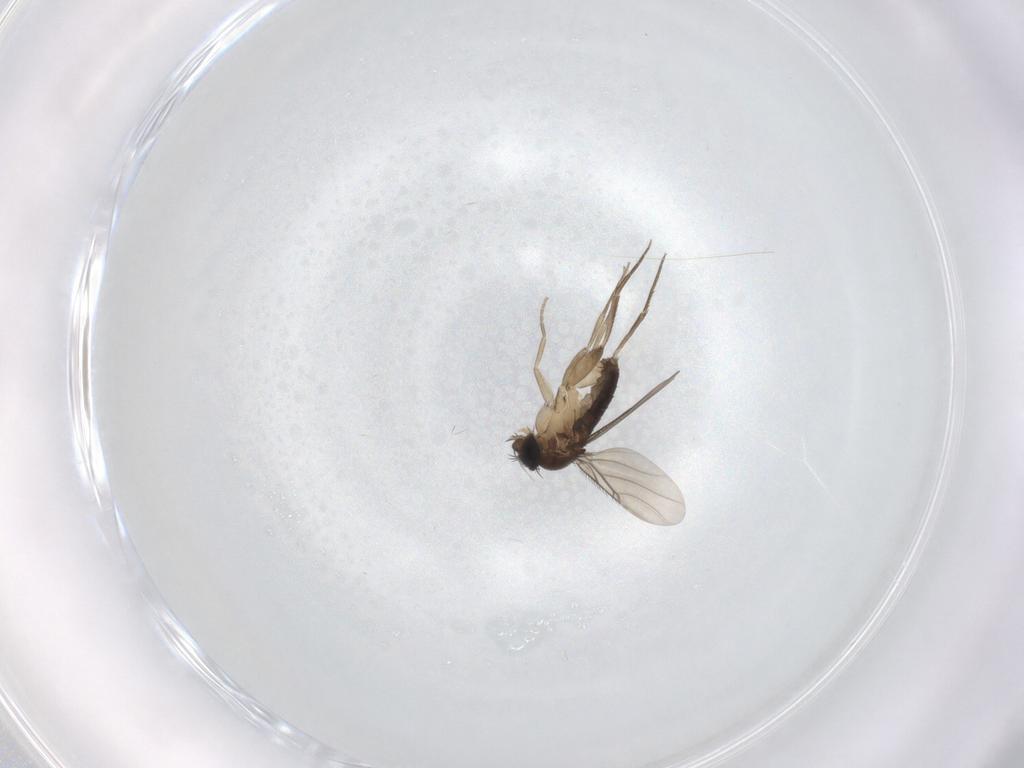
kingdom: Animalia
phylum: Arthropoda
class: Insecta
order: Diptera
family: Phoridae
